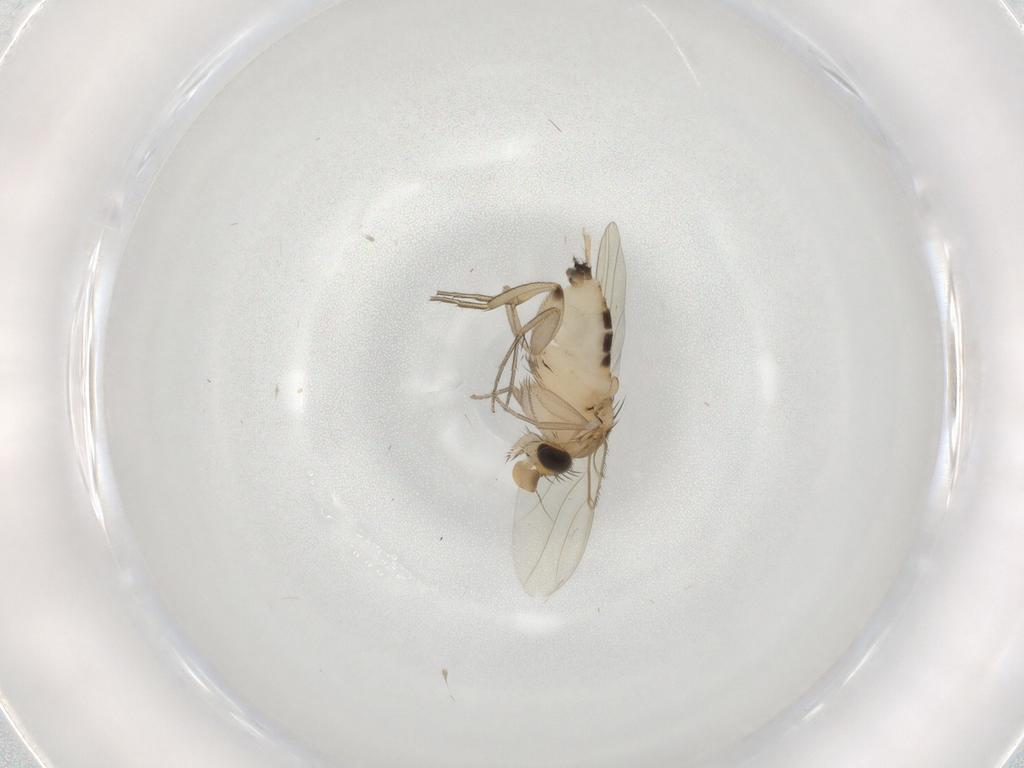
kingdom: Animalia
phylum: Arthropoda
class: Insecta
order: Diptera
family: Phoridae
